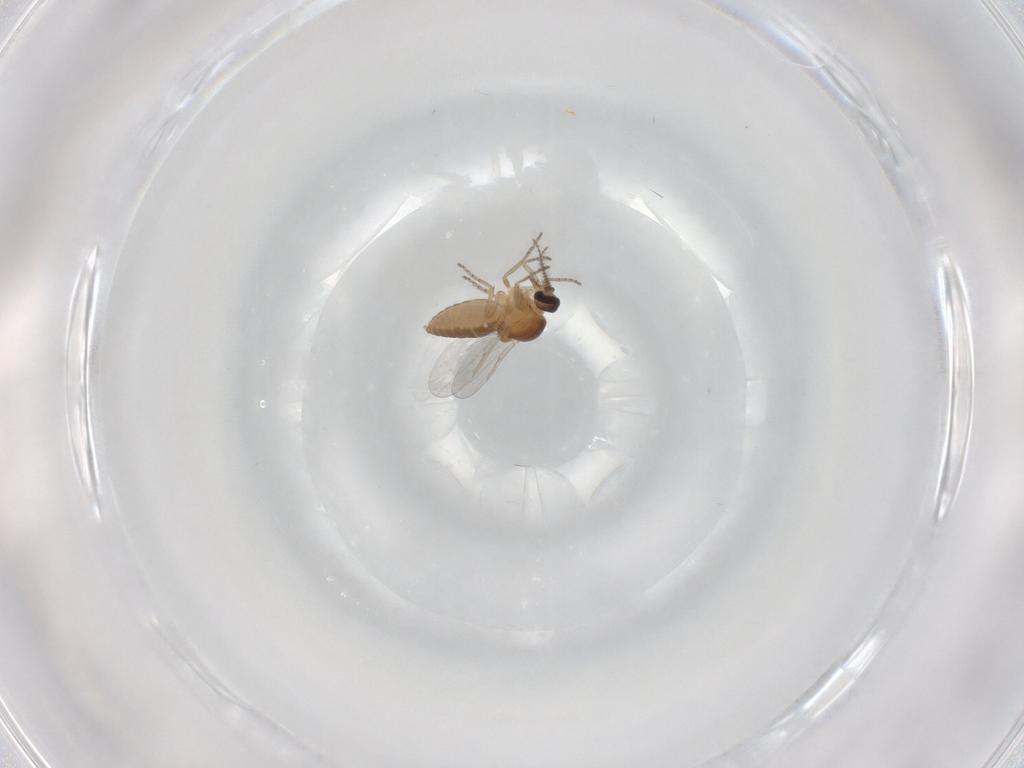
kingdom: Animalia
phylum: Arthropoda
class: Insecta
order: Diptera
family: Ceratopogonidae
